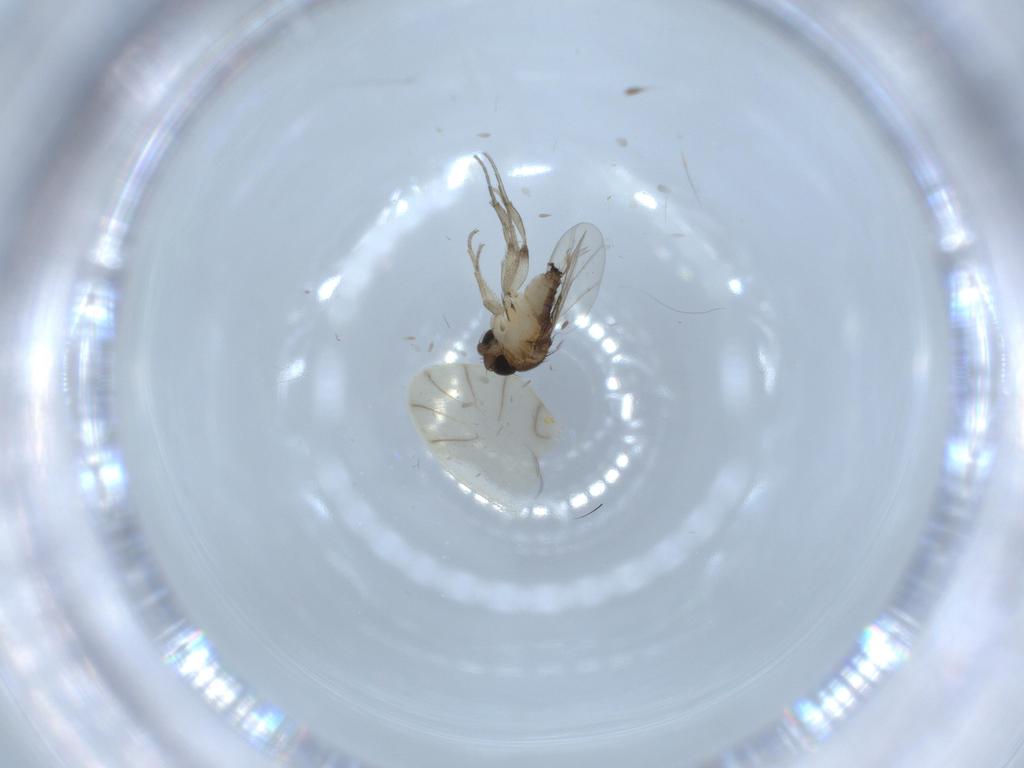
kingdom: Animalia
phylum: Arthropoda
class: Insecta
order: Diptera
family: Phoridae
